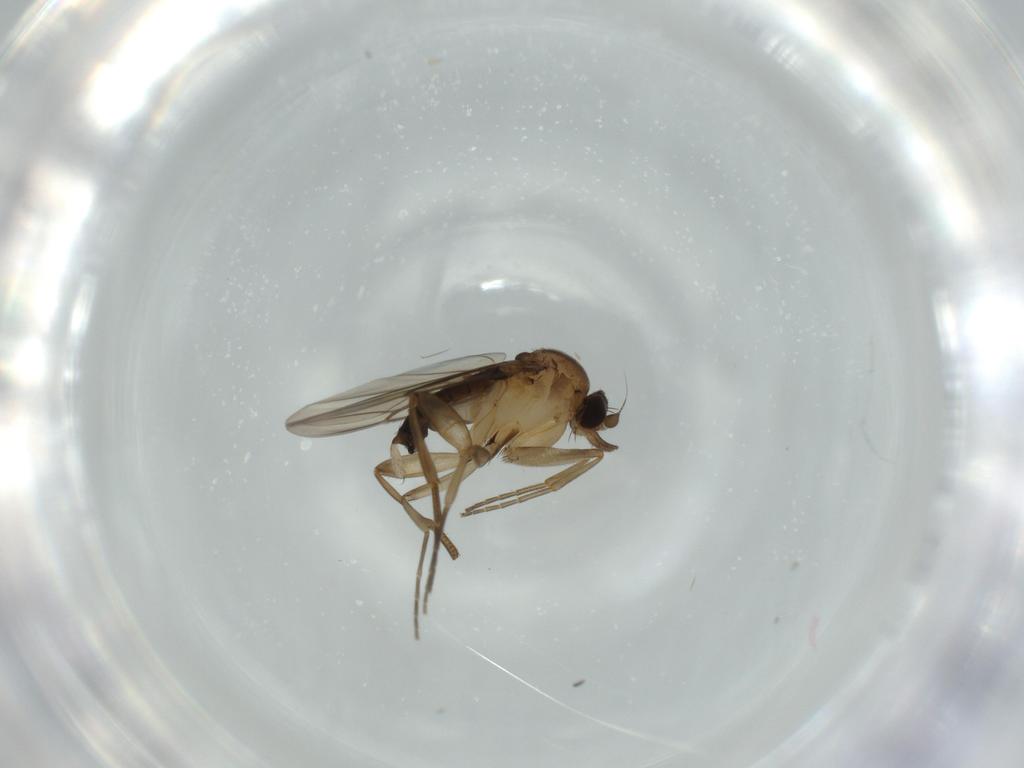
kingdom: Animalia
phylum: Arthropoda
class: Insecta
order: Diptera
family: Phoridae
